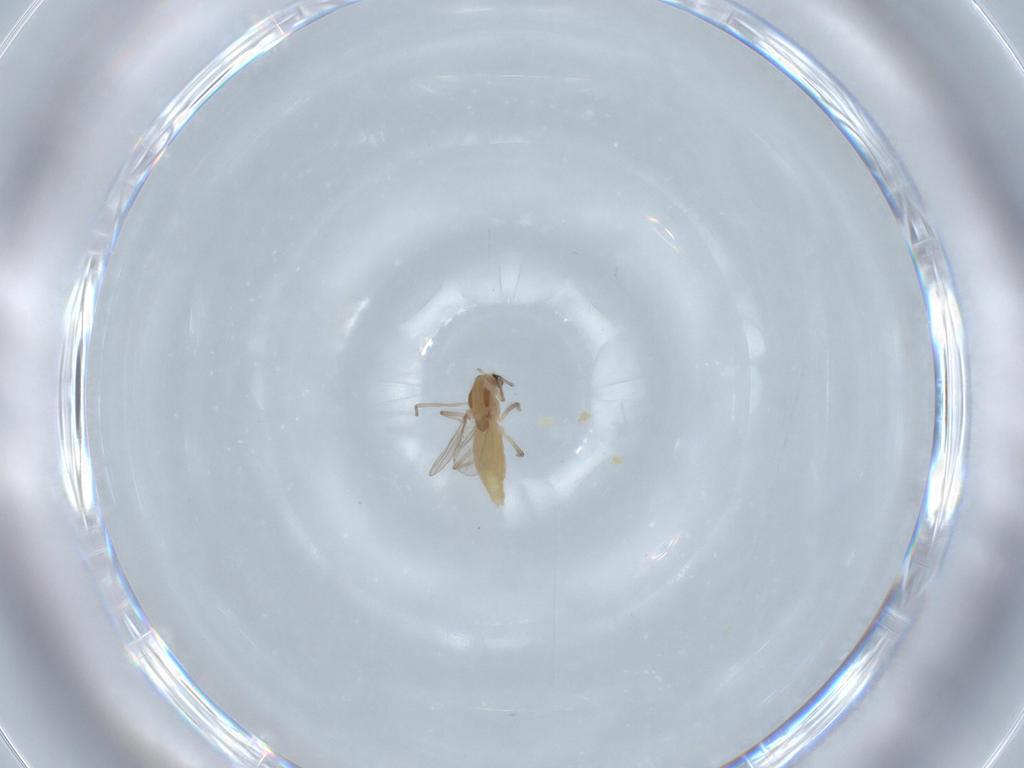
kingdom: Animalia
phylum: Arthropoda
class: Insecta
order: Diptera
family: Chironomidae
